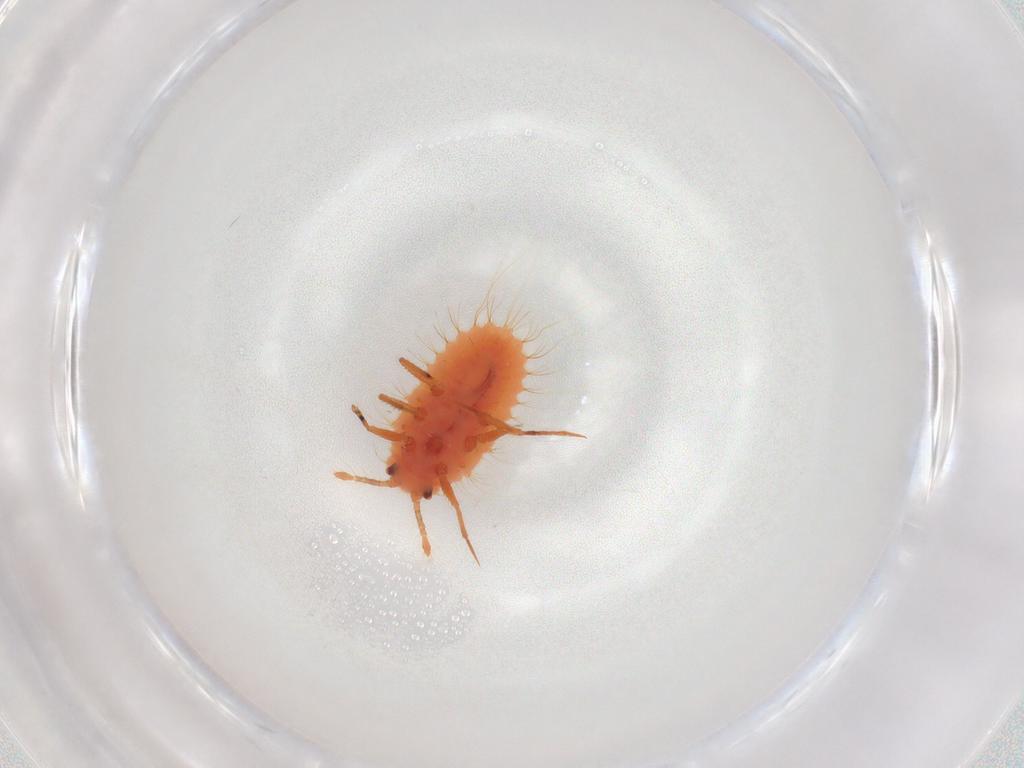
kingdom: Animalia
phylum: Arthropoda
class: Insecta
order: Hemiptera
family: Coccoidea_incertae_sedis
